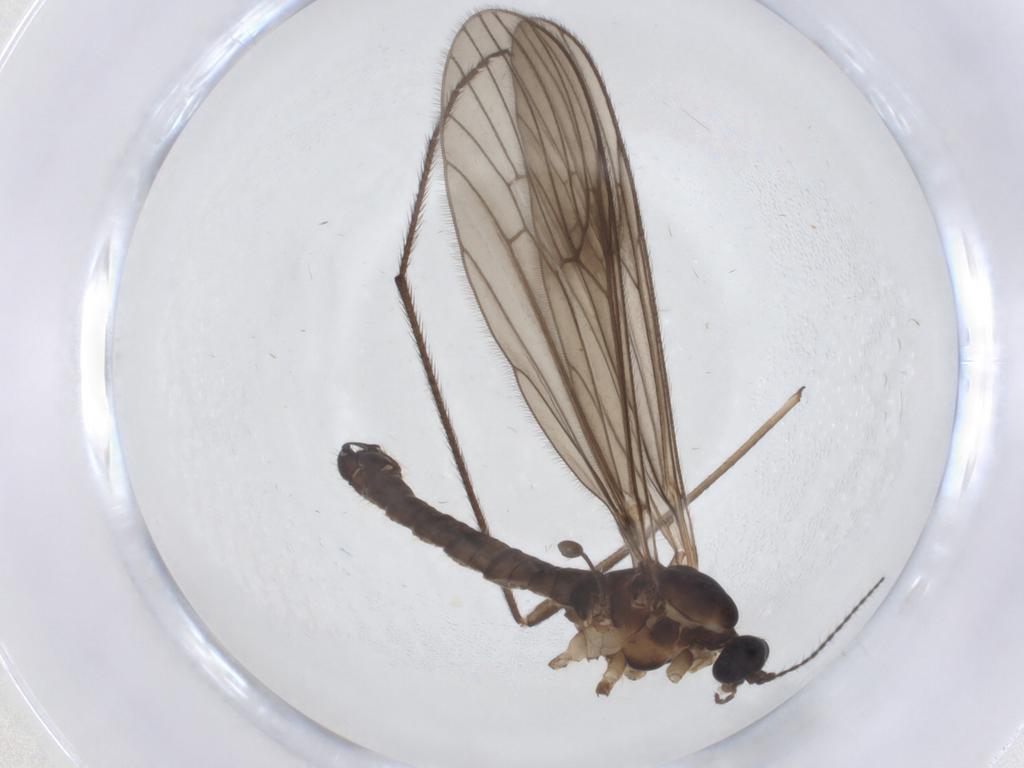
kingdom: Animalia
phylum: Arthropoda
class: Insecta
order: Diptera
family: Limoniidae
